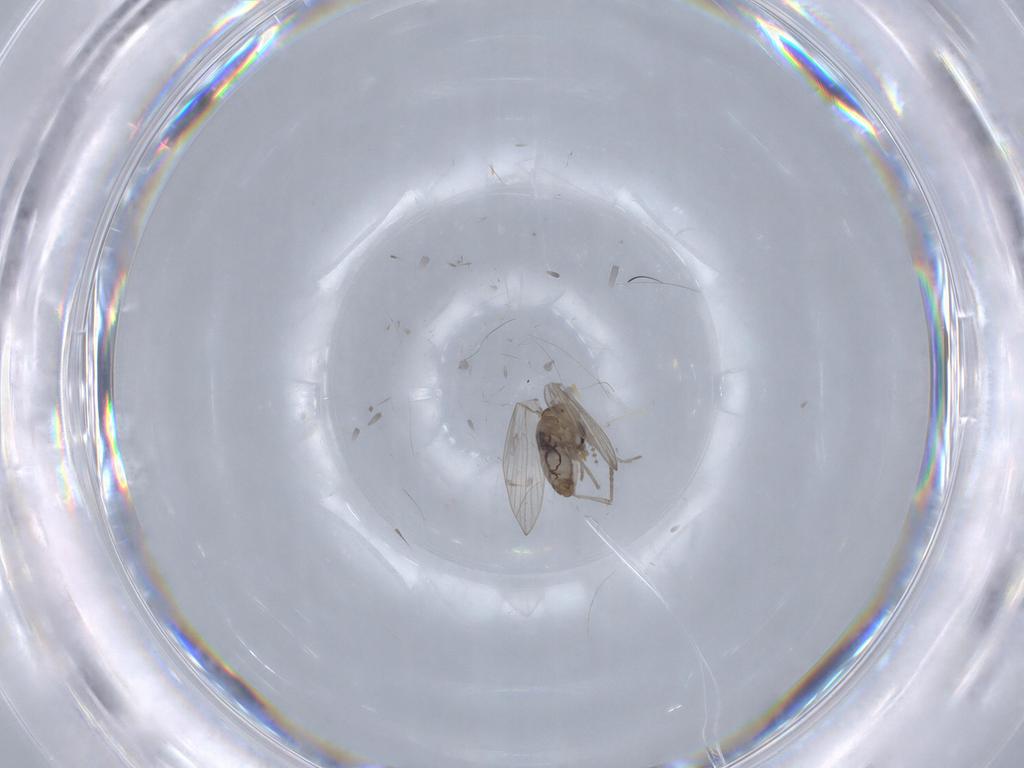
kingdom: Animalia
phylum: Arthropoda
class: Insecta
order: Diptera
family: Psychodidae
